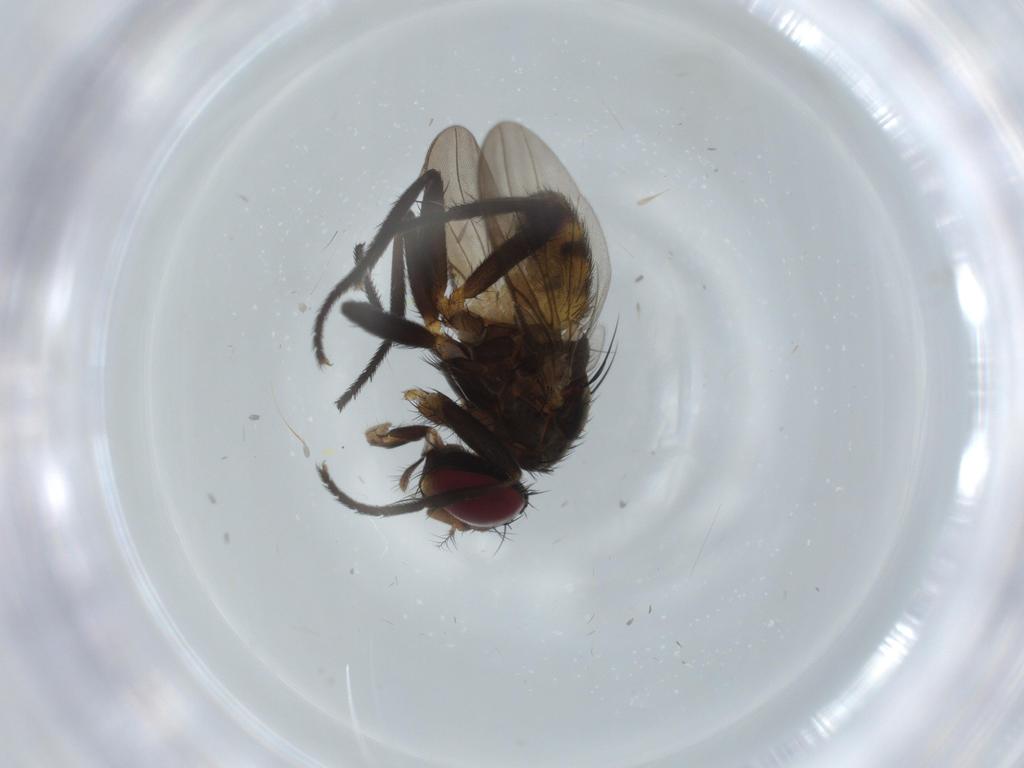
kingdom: Animalia
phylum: Arthropoda
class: Insecta
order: Diptera
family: Anthomyiidae
